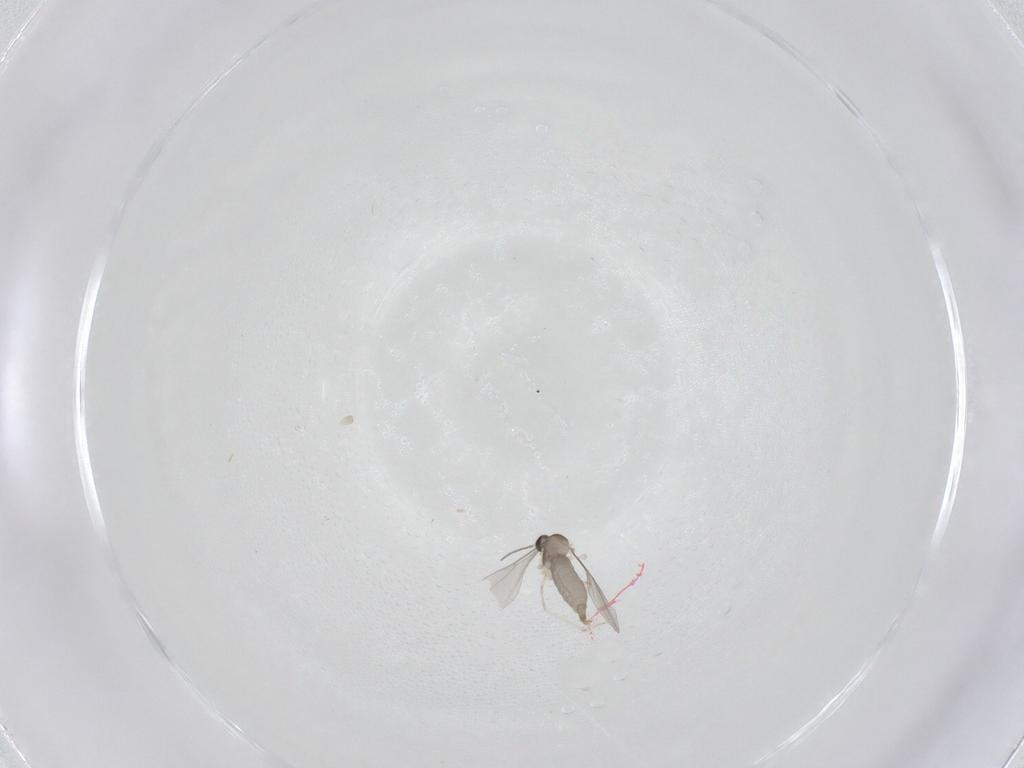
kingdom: Animalia
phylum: Arthropoda
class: Insecta
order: Diptera
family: Cecidomyiidae
